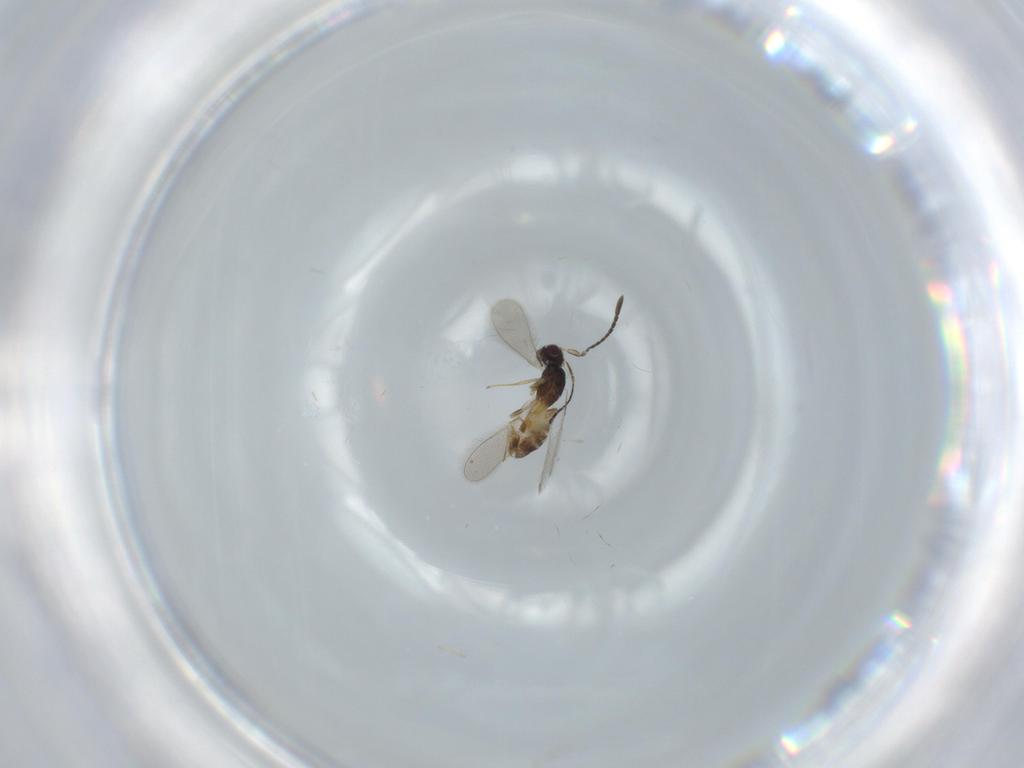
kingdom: Animalia
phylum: Arthropoda
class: Insecta
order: Hymenoptera
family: Mymaridae
